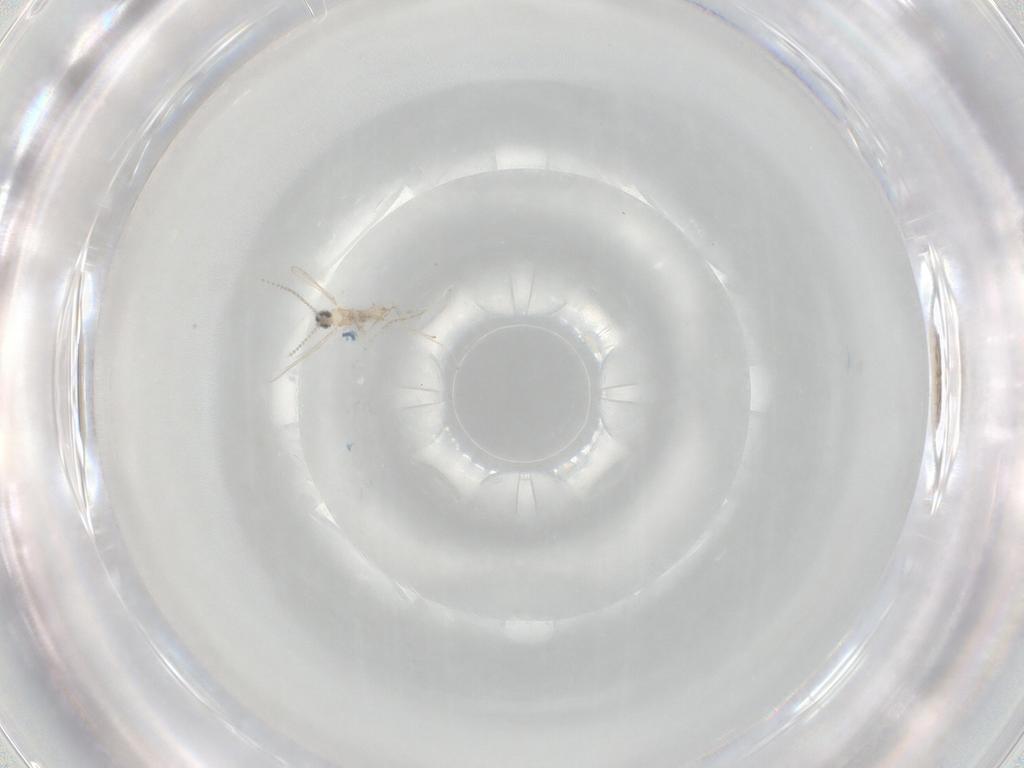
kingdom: Animalia
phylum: Arthropoda
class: Insecta
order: Diptera
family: Cecidomyiidae
